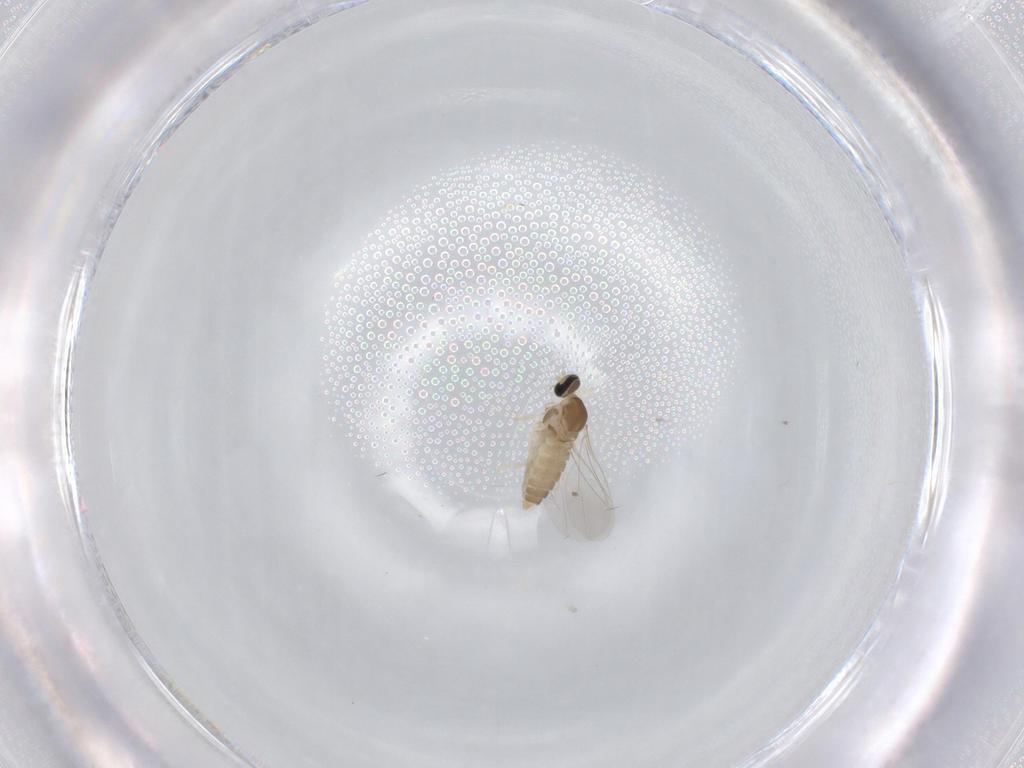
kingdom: Animalia
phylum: Arthropoda
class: Insecta
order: Diptera
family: Cecidomyiidae
